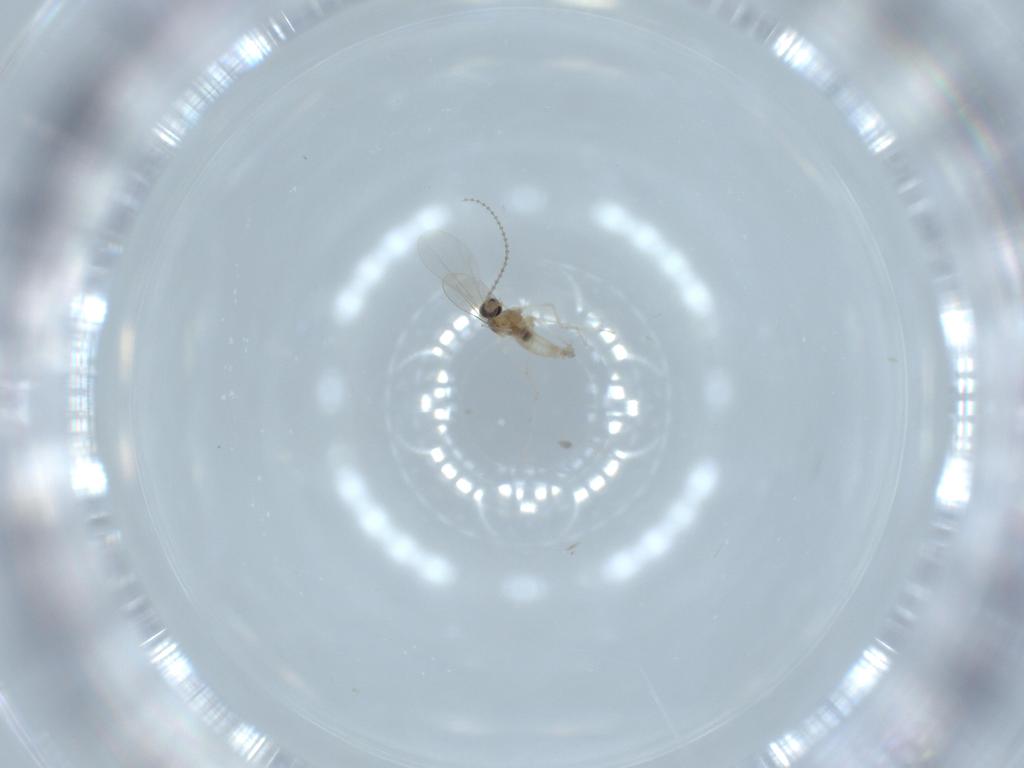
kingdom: Animalia
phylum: Arthropoda
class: Insecta
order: Diptera
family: Cecidomyiidae
